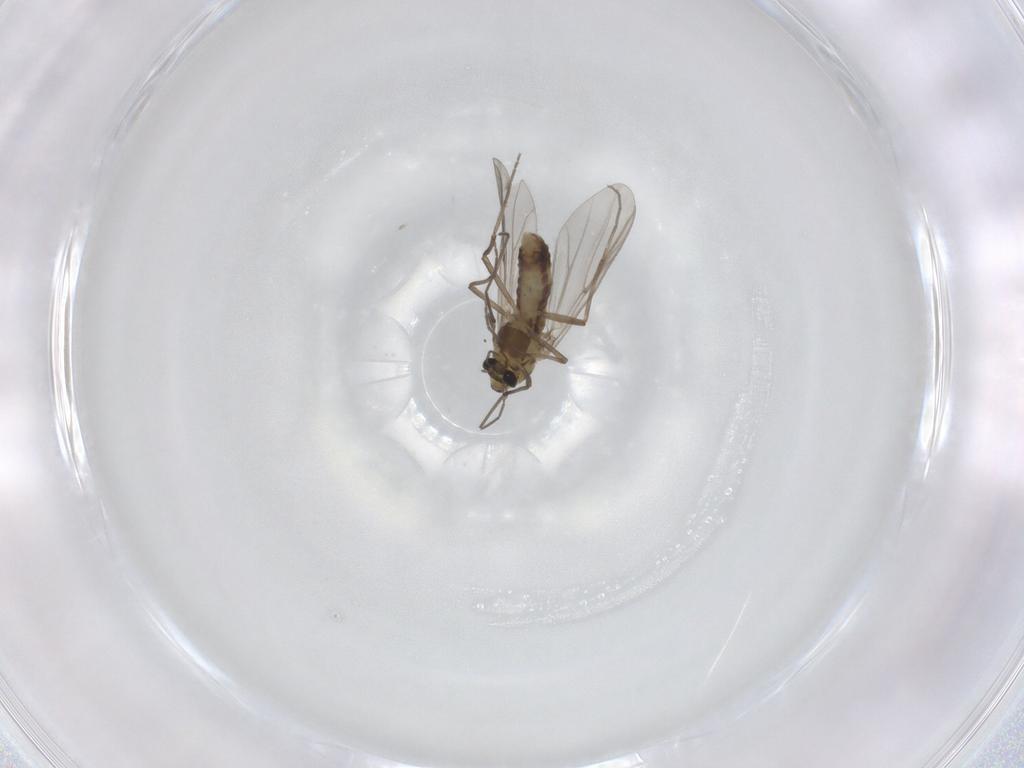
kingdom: Animalia
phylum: Arthropoda
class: Insecta
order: Diptera
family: Chironomidae
